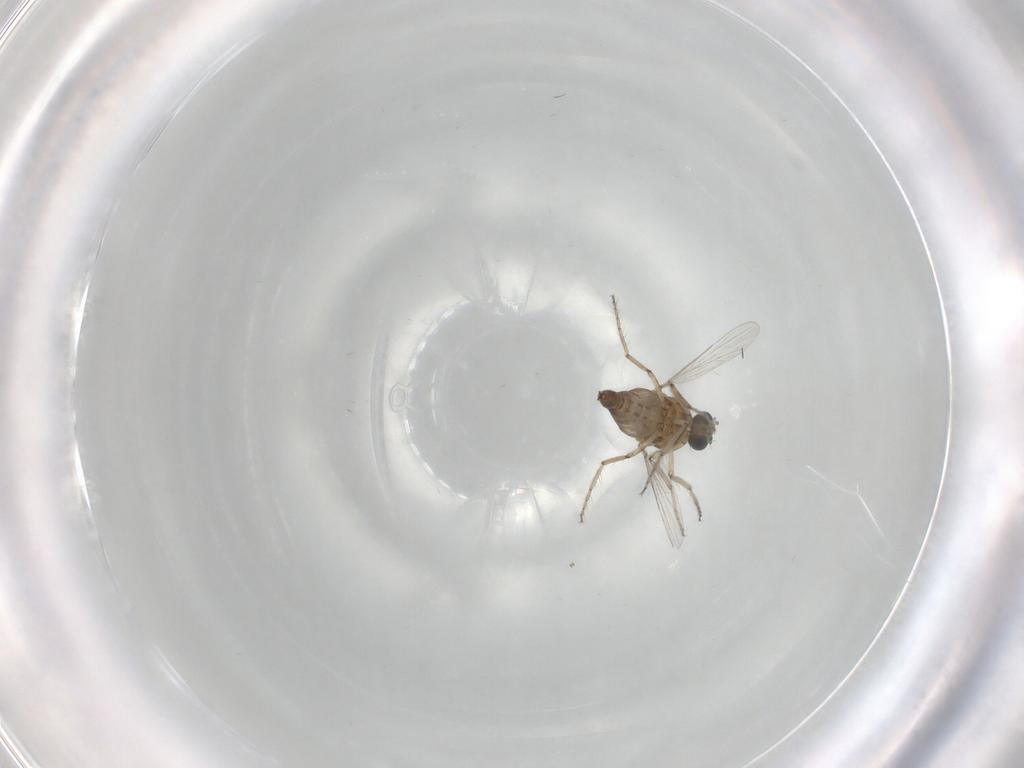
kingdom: Animalia
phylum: Arthropoda
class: Insecta
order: Diptera
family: Ceratopogonidae
